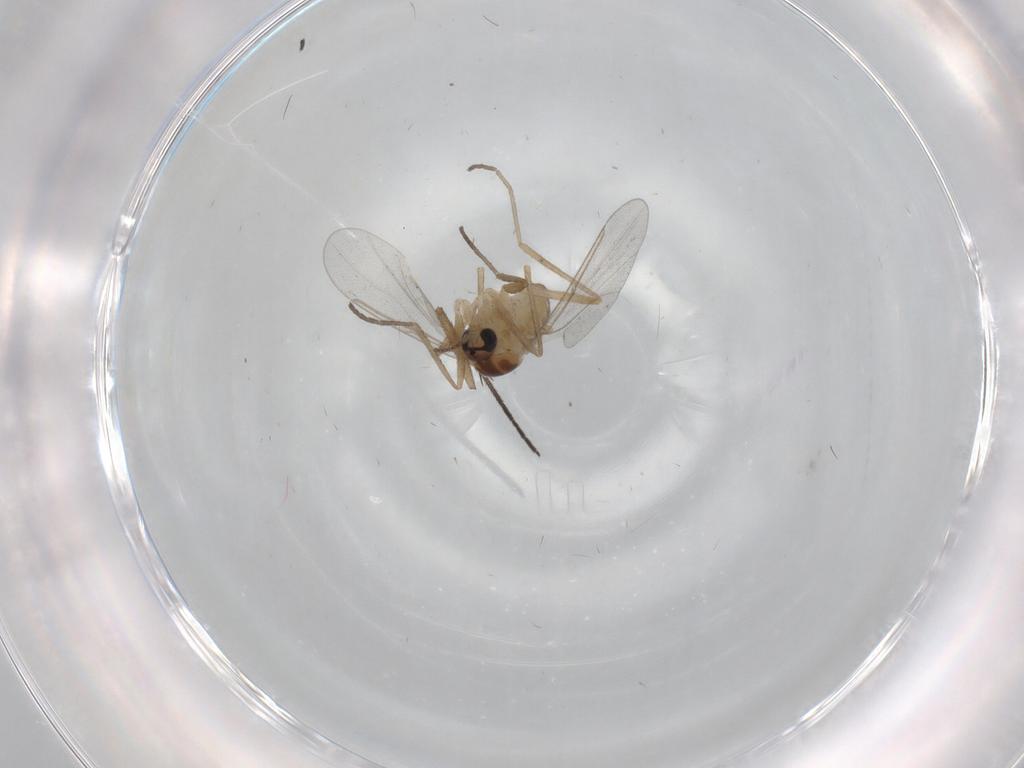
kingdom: Animalia
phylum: Arthropoda
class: Insecta
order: Diptera
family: Cecidomyiidae
